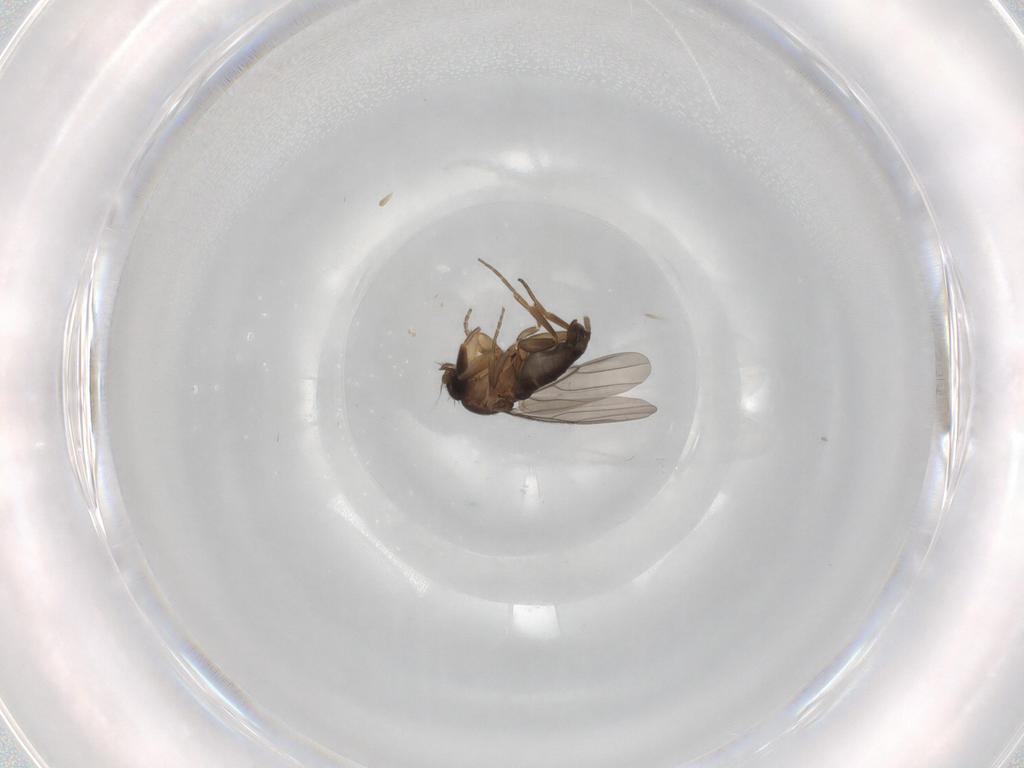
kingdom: Animalia
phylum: Arthropoda
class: Insecta
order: Diptera
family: Phoridae
